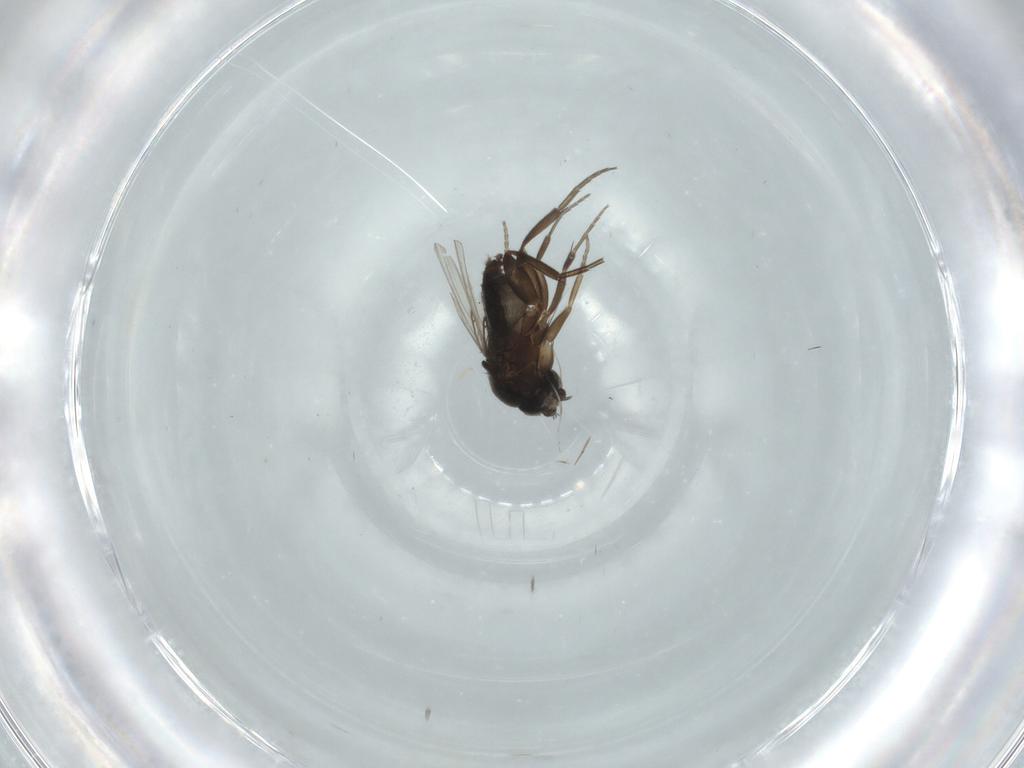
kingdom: Animalia
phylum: Arthropoda
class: Insecta
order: Diptera
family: Phoridae
